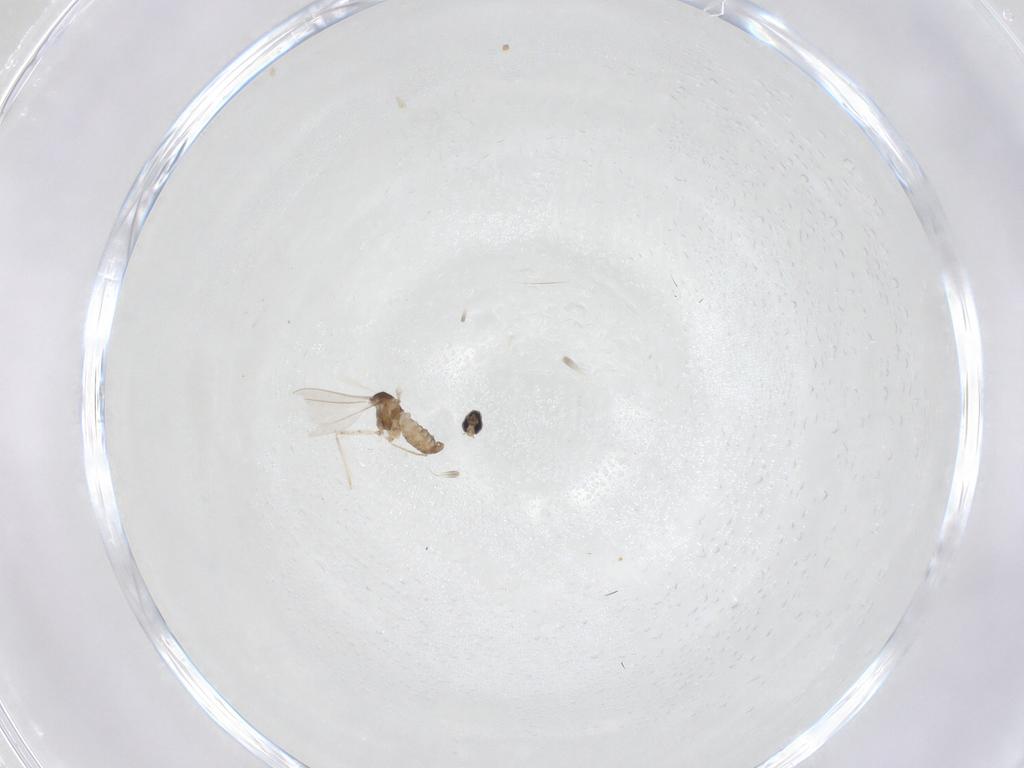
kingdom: Animalia
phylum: Arthropoda
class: Insecta
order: Diptera
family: Cecidomyiidae
